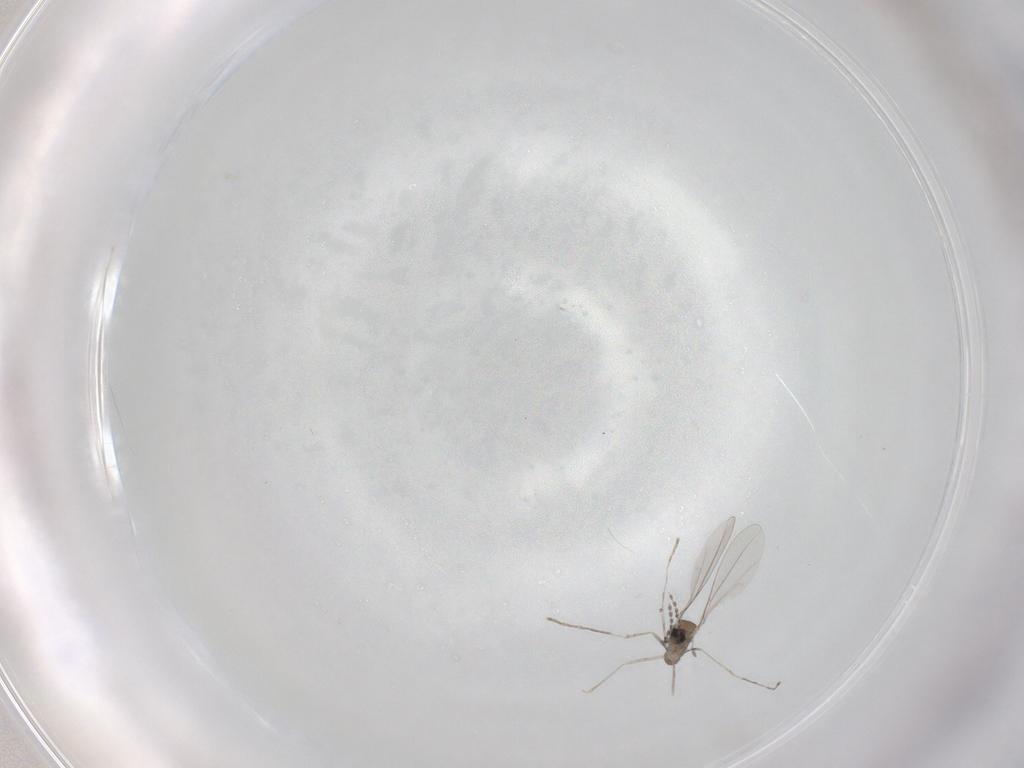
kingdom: Animalia
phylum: Arthropoda
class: Insecta
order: Diptera
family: Cecidomyiidae
